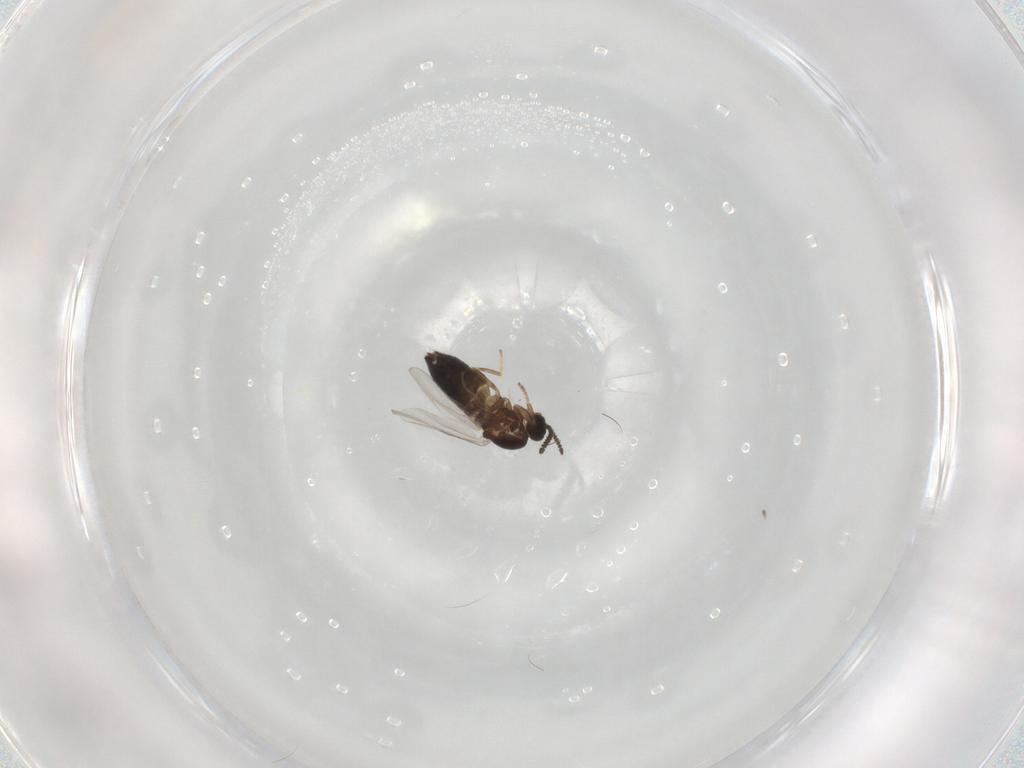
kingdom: Animalia
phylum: Arthropoda
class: Insecta
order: Diptera
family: Scatopsidae
